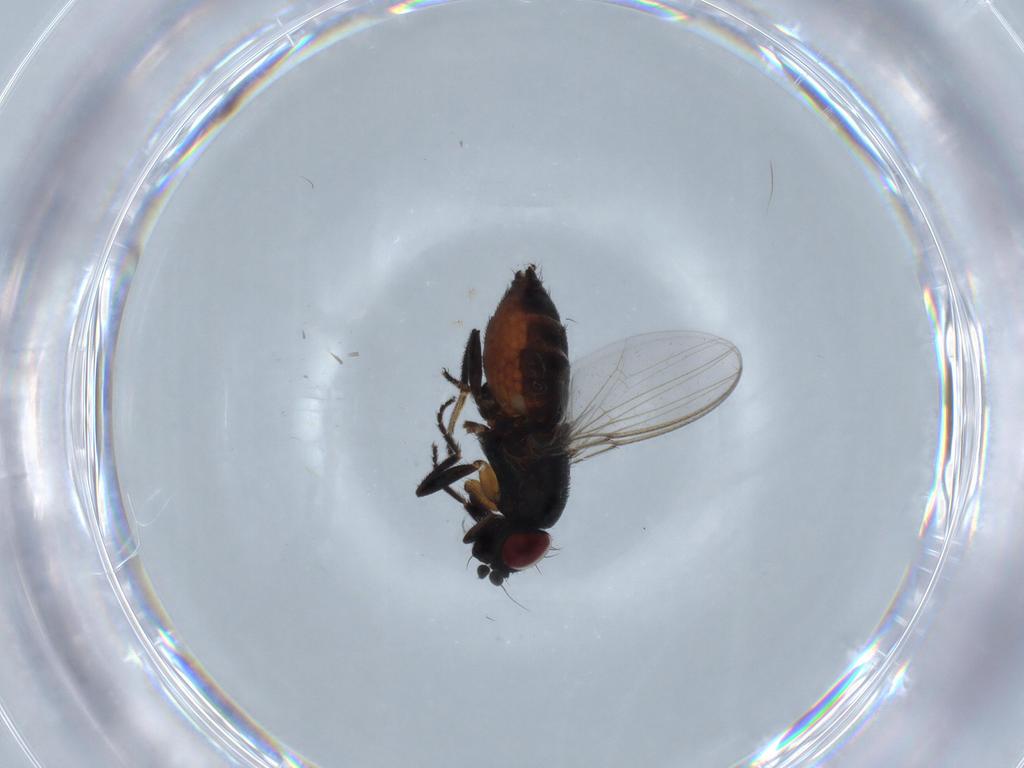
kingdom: Animalia
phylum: Arthropoda
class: Insecta
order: Diptera
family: Milichiidae
